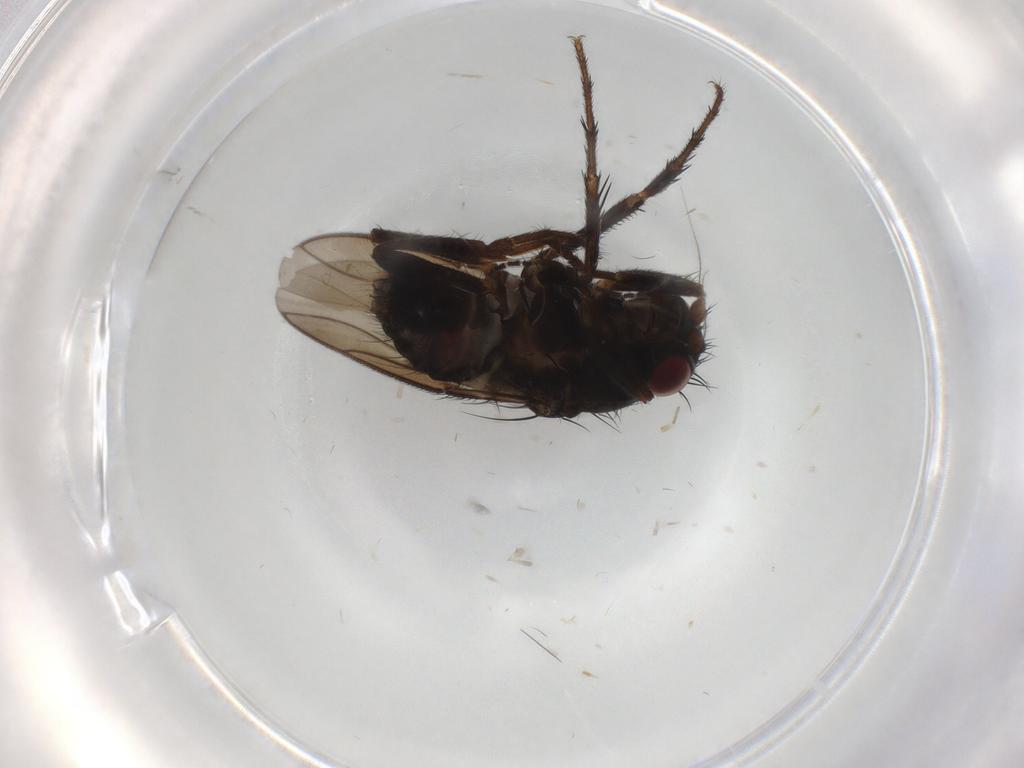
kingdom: Animalia
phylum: Arthropoda
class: Insecta
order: Diptera
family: Sphaeroceridae
